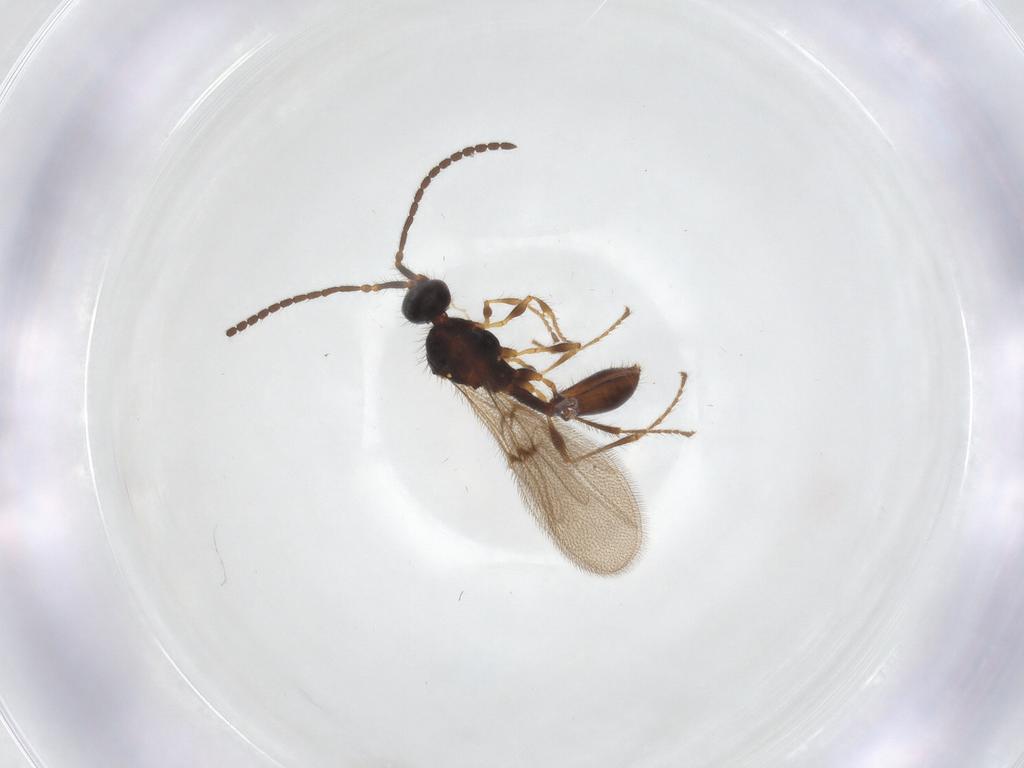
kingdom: Animalia
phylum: Arthropoda
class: Insecta
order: Hymenoptera
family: Diapriidae
